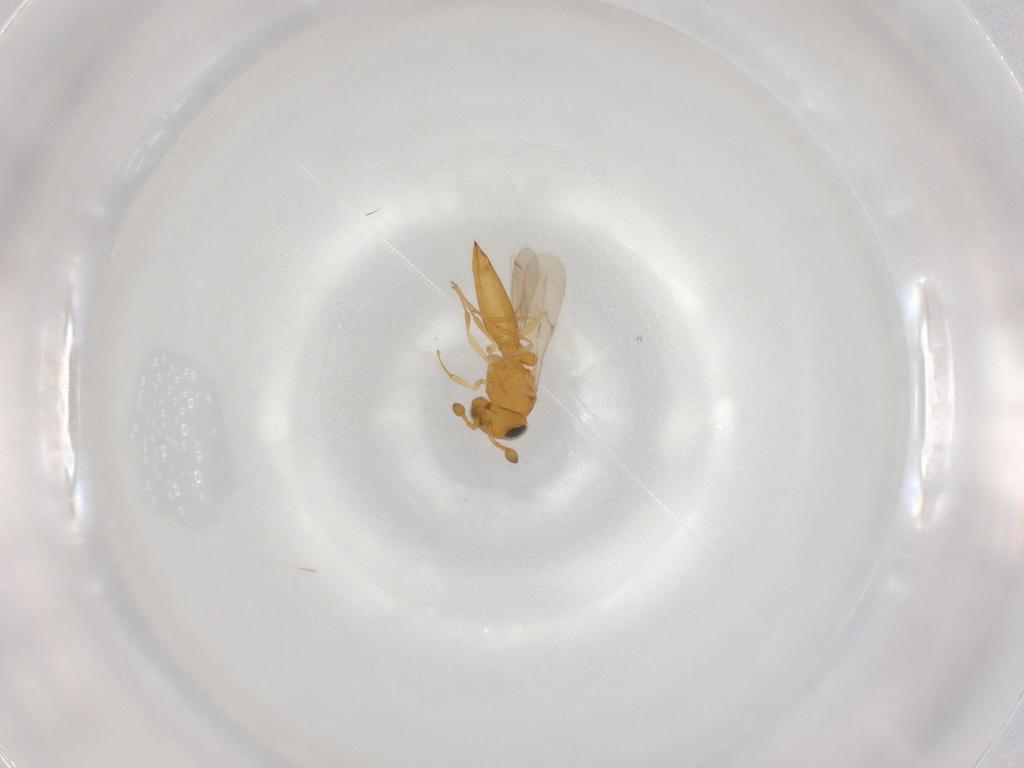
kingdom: Animalia
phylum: Arthropoda
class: Insecta
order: Hymenoptera
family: Scelionidae
